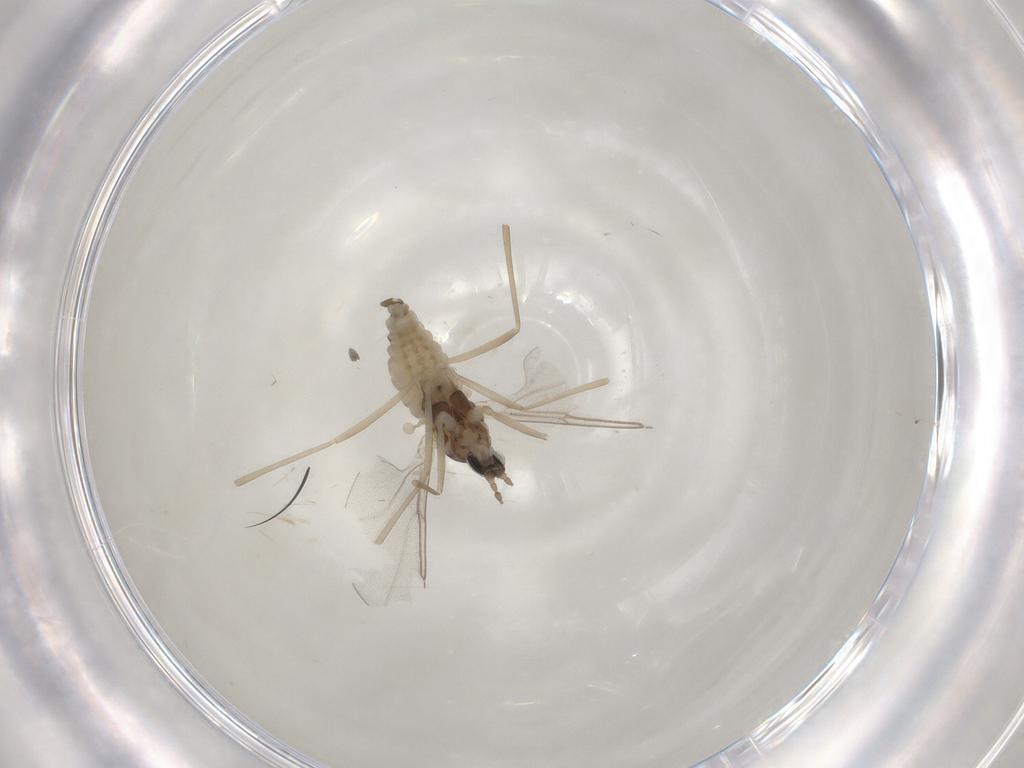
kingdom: Animalia
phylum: Arthropoda
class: Insecta
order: Diptera
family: Cecidomyiidae
